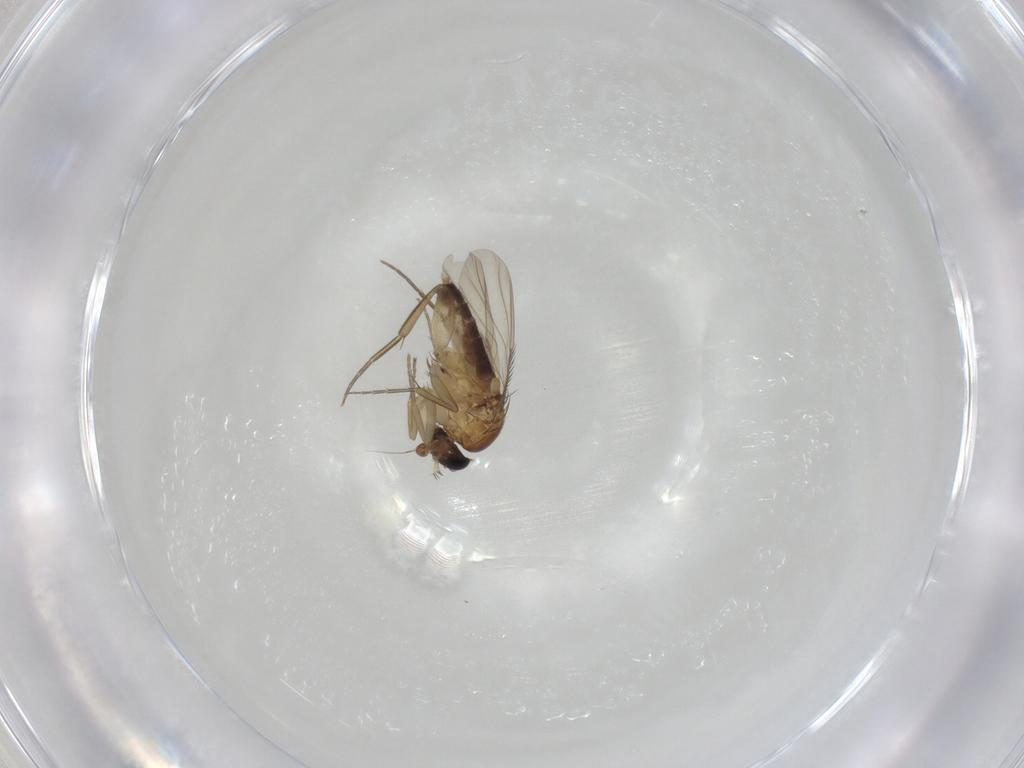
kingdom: Animalia
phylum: Arthropoda
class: Insecta
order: Diptera
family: Phoridae
